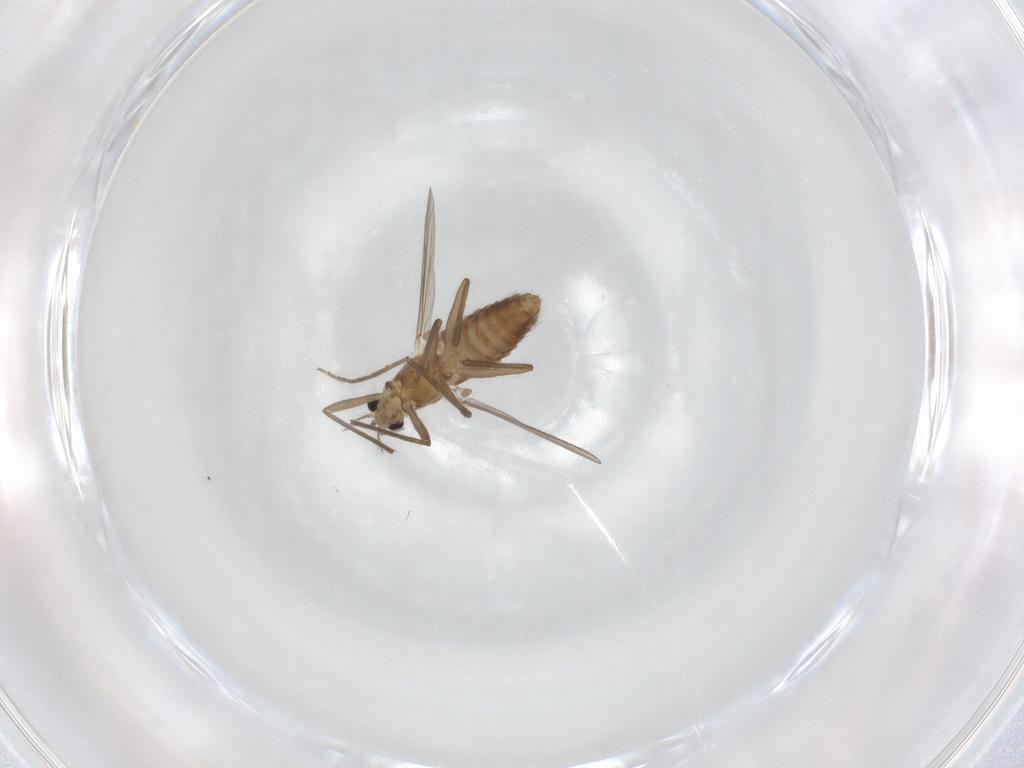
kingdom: Animalia
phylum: Arthropoda
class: Insecta
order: Diptera
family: Chironomidae
